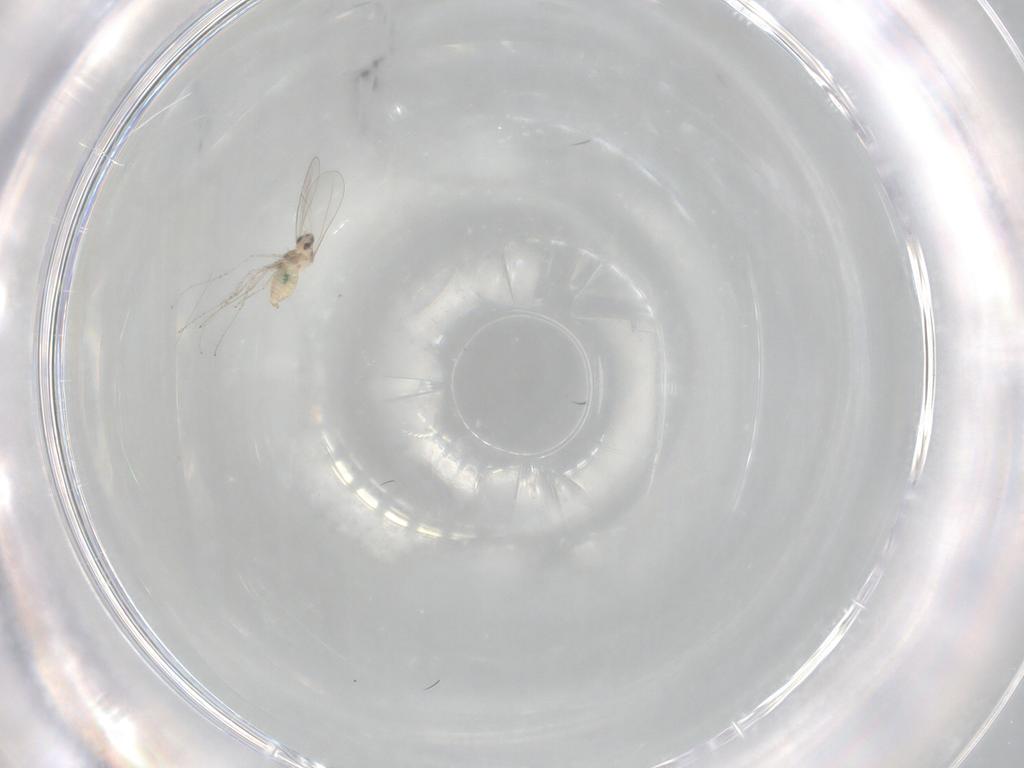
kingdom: Animalia
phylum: Arthropoda
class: Insecta
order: Diptera
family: Cecidomyiidae
